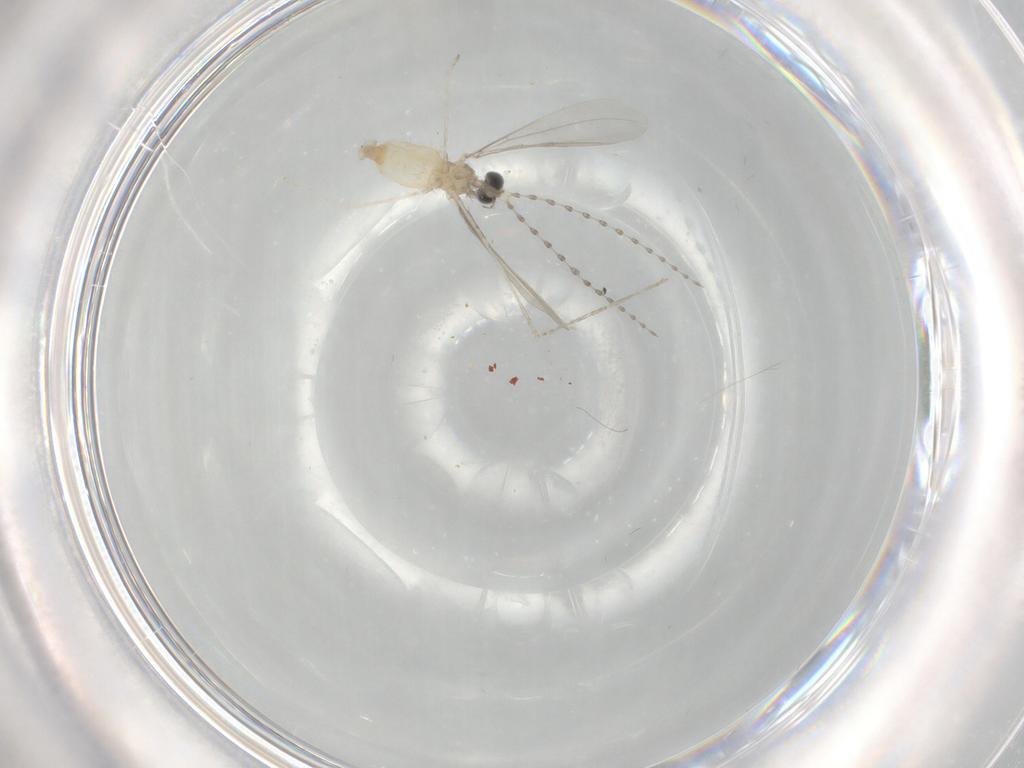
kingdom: Animalia
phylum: Arthropoda
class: Insecta
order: Diptera
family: Cecidomyiidae
